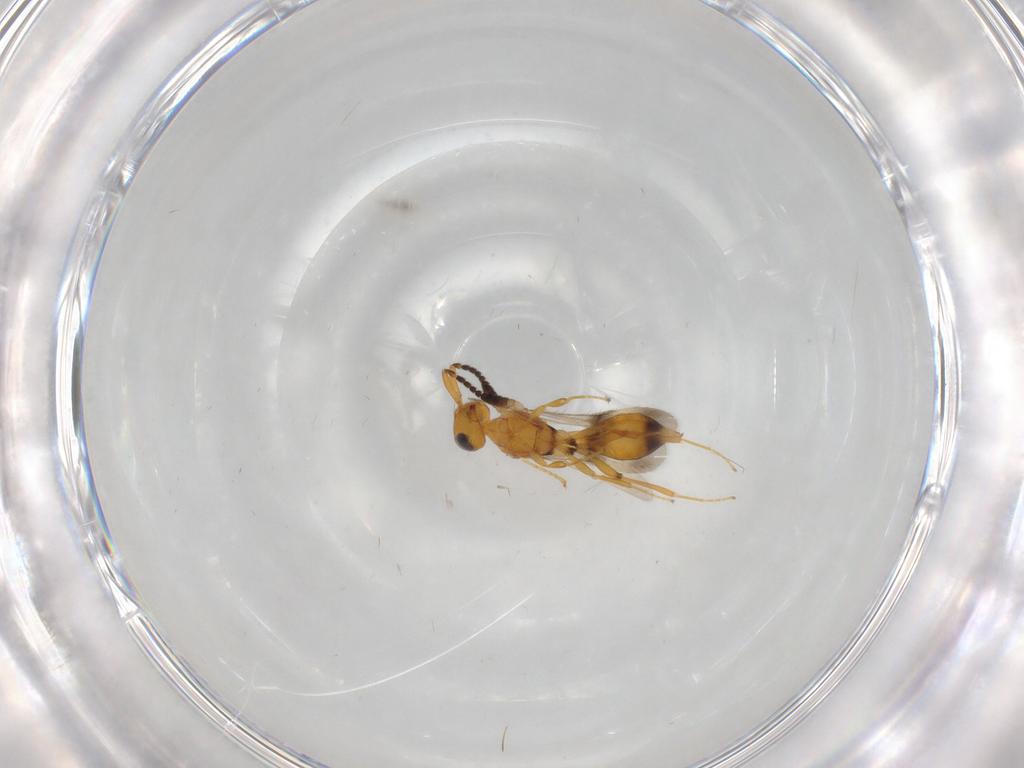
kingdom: Animalia
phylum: Arthropoda
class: Insecta
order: Hymenoptera
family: Scelionidae
